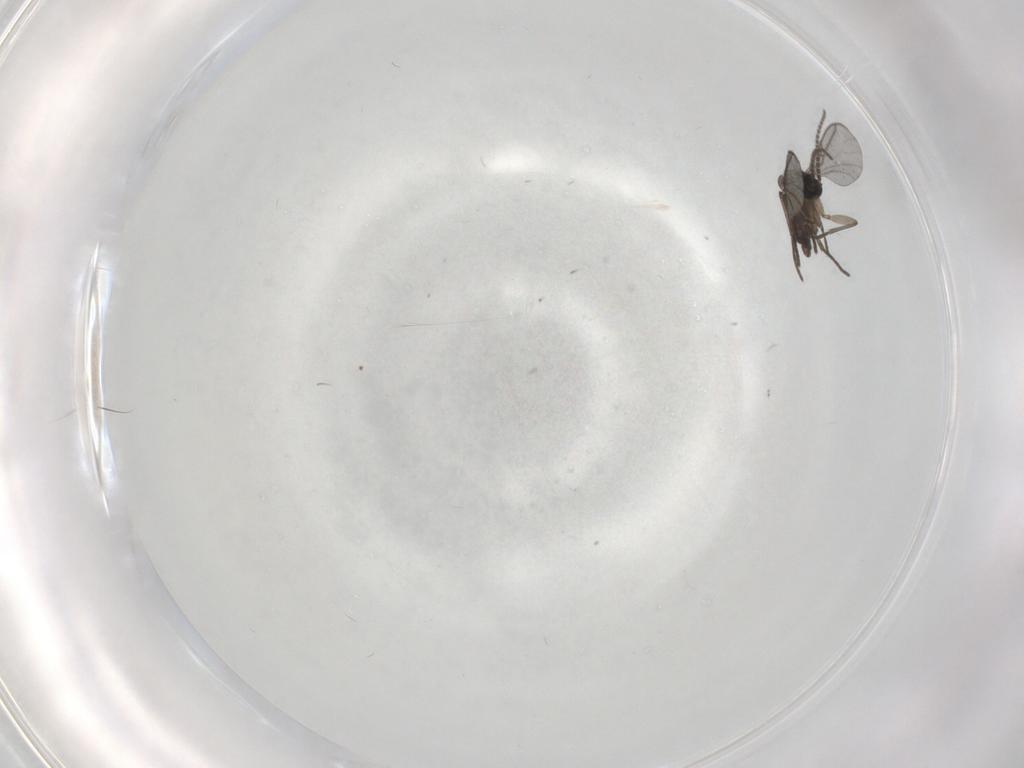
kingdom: Animalia
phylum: Arthropoda
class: Insecta
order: Diptera
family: Cecidomyiidae
